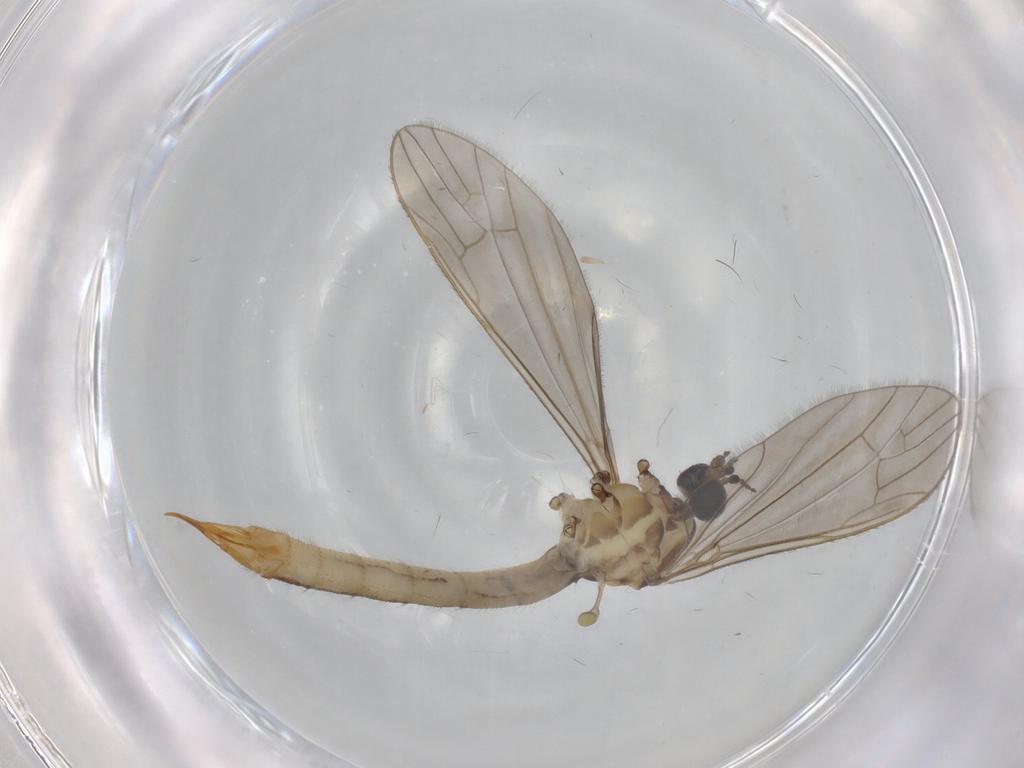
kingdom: Animalia
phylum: Arthropoda
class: Insecta
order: Diptera
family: Limoniidae
